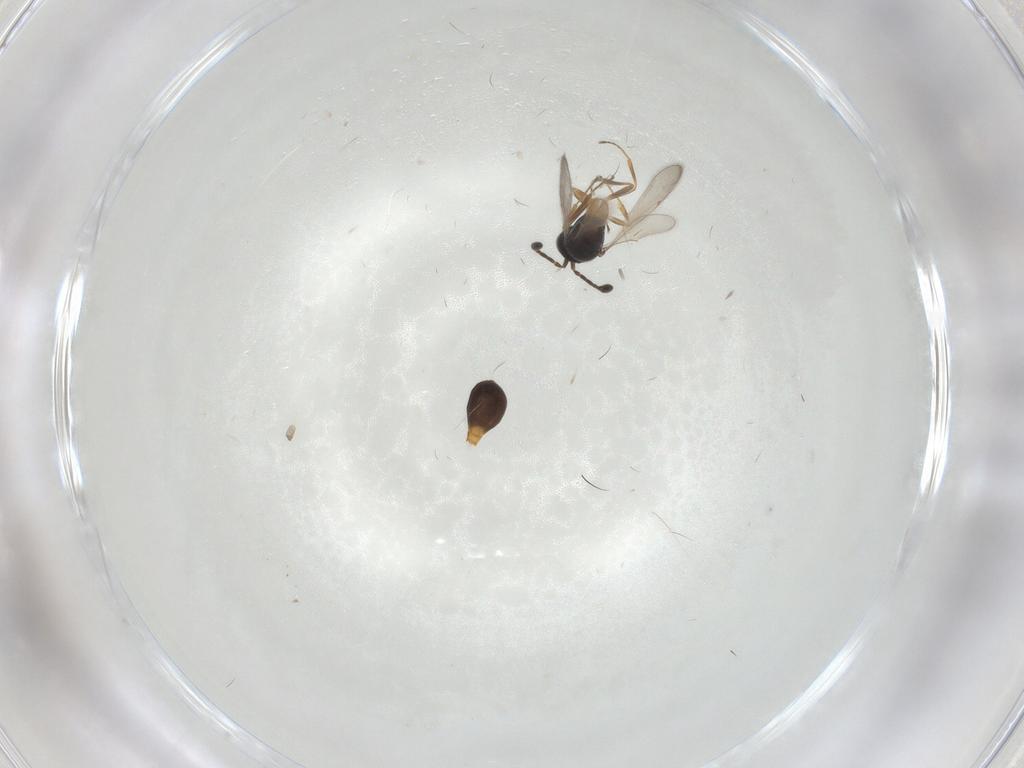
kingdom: Animalia
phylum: Arthropoda
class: Insecta
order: Hymenoptera
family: Scelionidae
